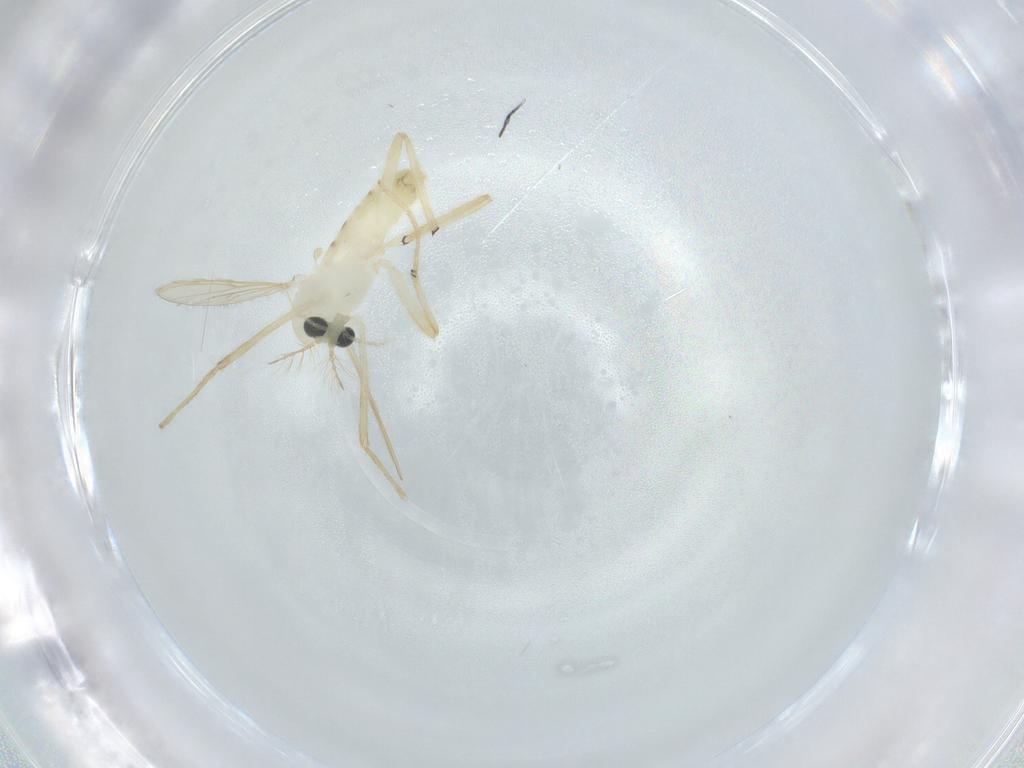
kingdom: Animalia
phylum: Arthropoda
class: Insecta
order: Diptera
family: Chironomidae
